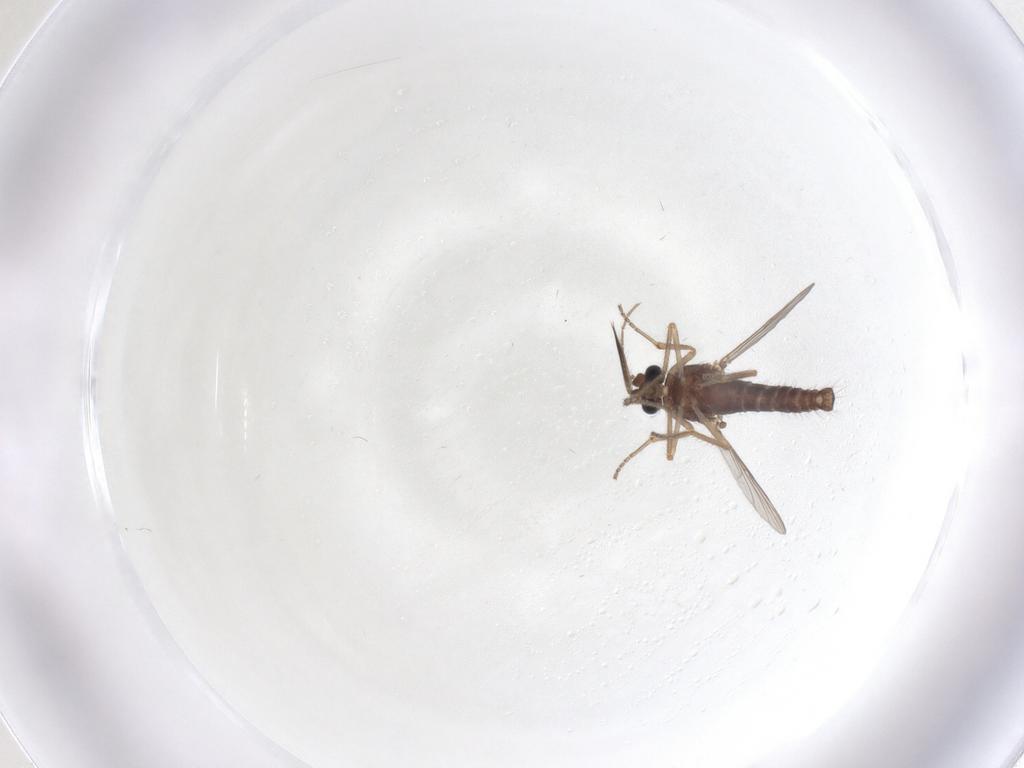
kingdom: Animalia
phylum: Arthropoda
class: Insecta
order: Diptera
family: Ceratopogonidae
